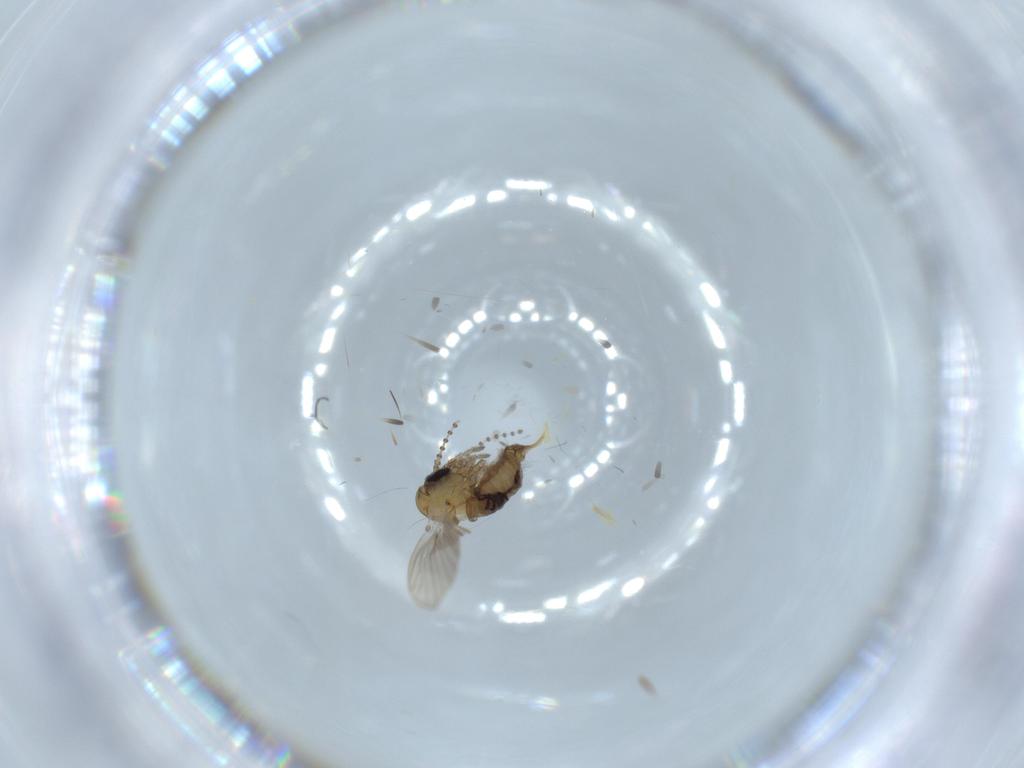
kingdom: Animalia
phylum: Arthropoda
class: Insecta
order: Diptera
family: Psychodidae
